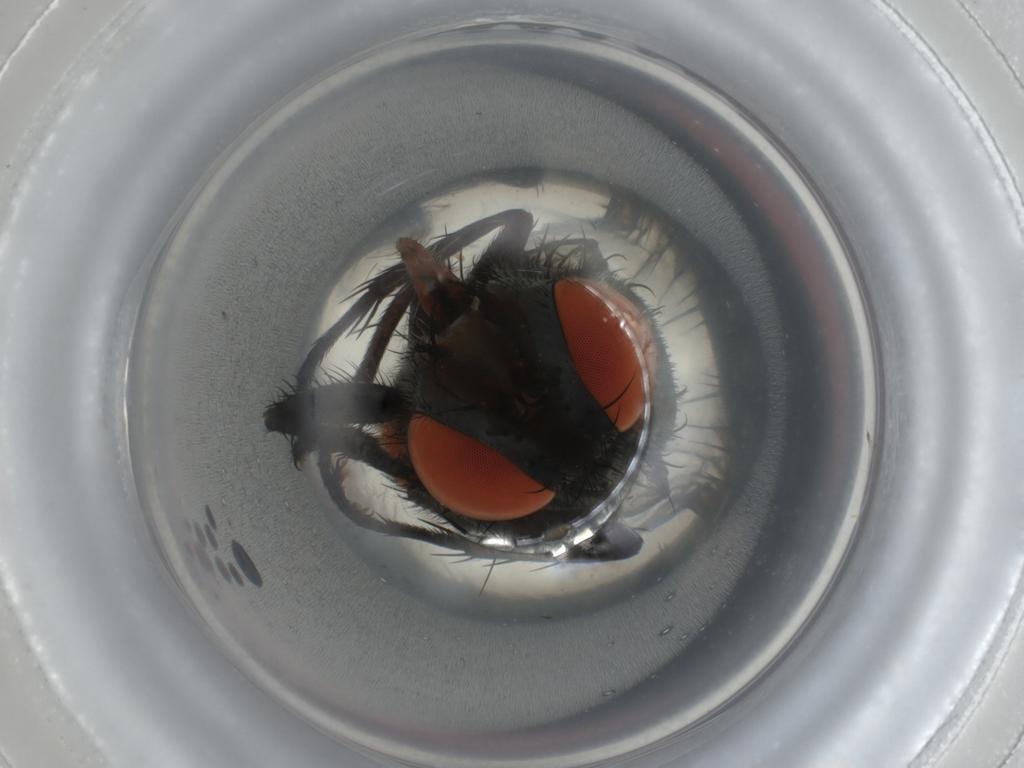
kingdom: Animalia
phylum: Arthropoda
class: Insecta
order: Diptera
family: Sarcophagidae
